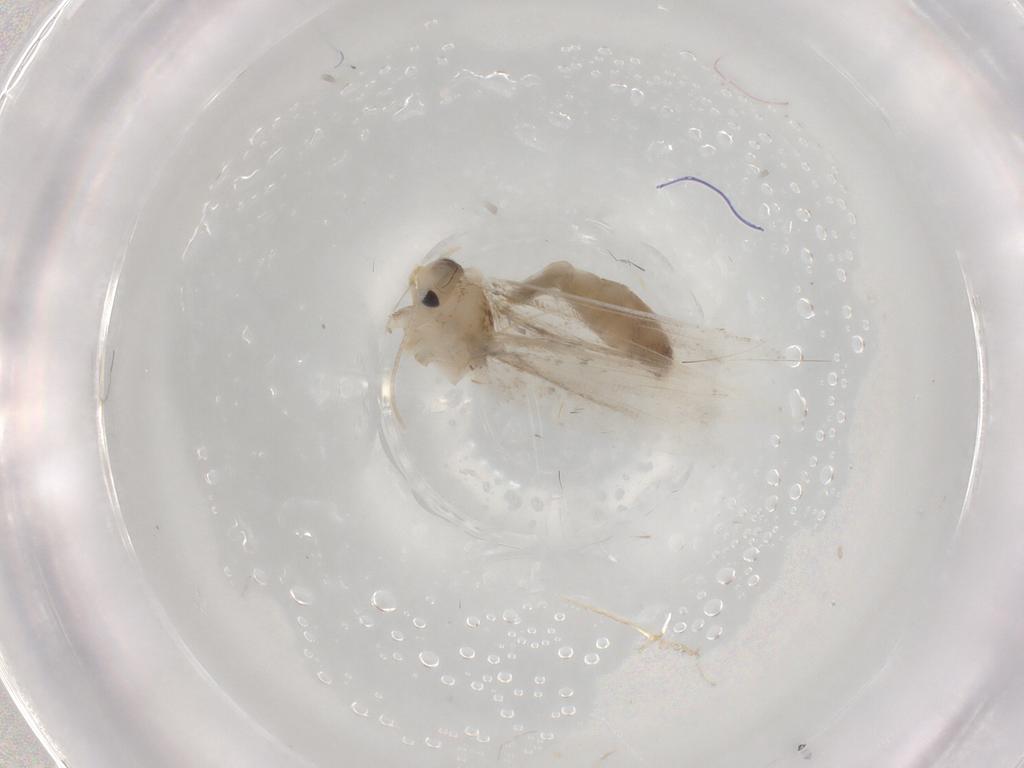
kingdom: Animalia
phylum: Arthropoda
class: Insecta
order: Lepidoptera
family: Tineidae
